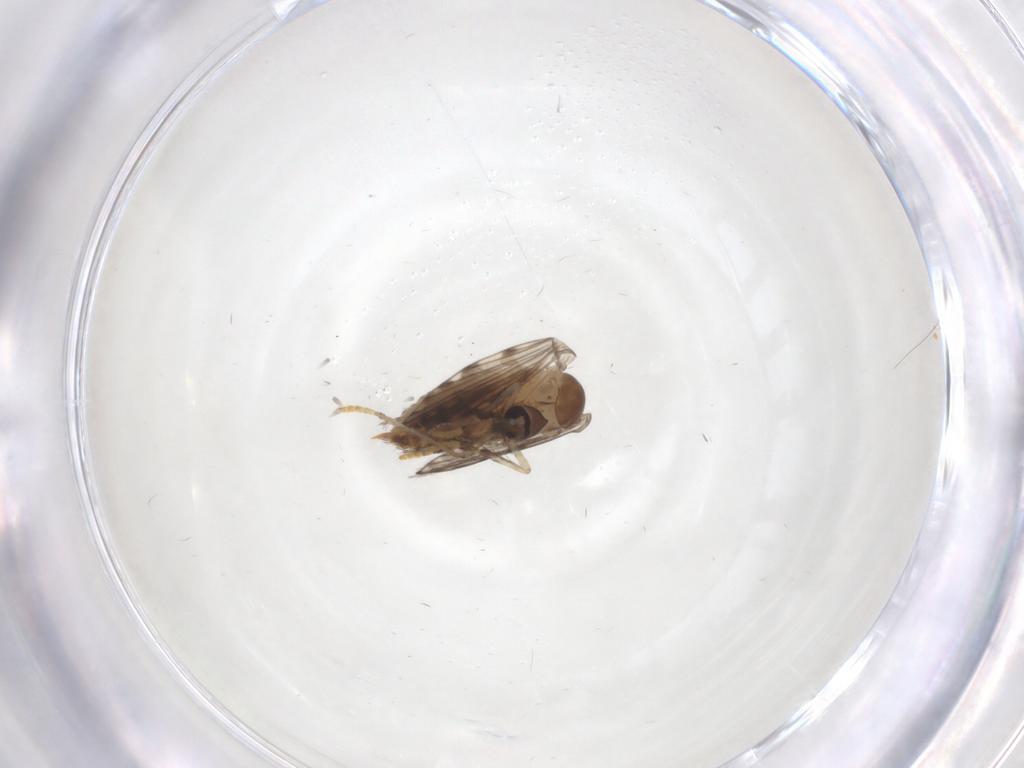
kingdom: Animalia
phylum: Arthropoda
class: Insecta
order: Diptera
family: Psychodidae
